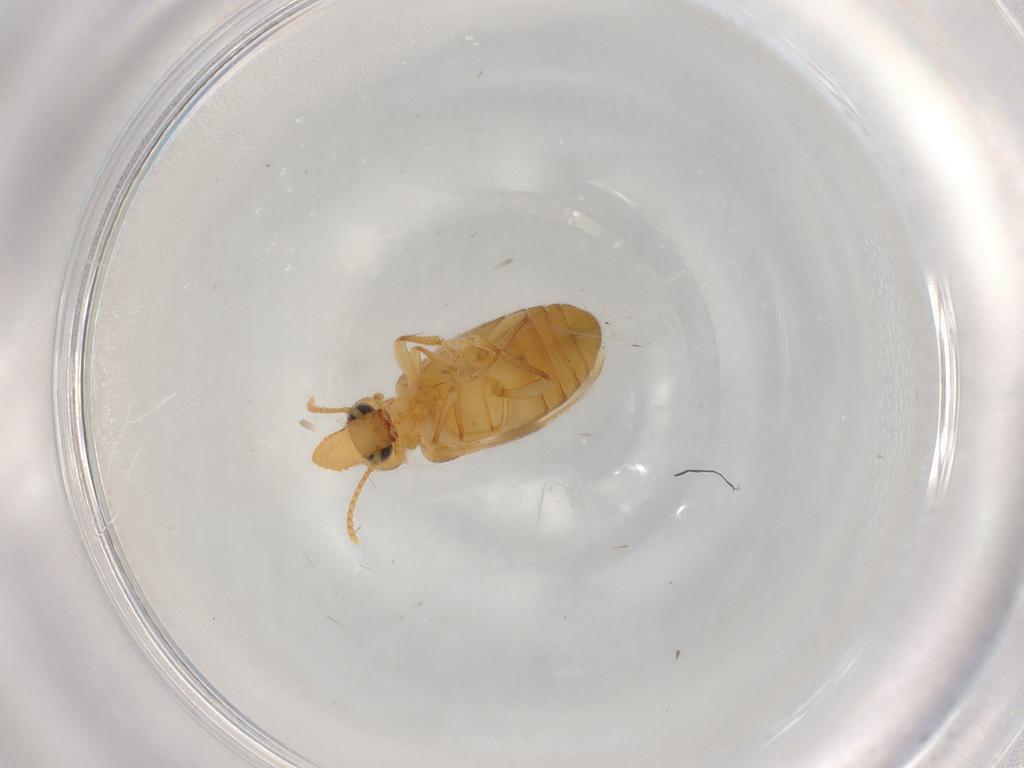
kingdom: Animalia
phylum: Arthropoda
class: Insecta
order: Coleoptera
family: Anthicidae
